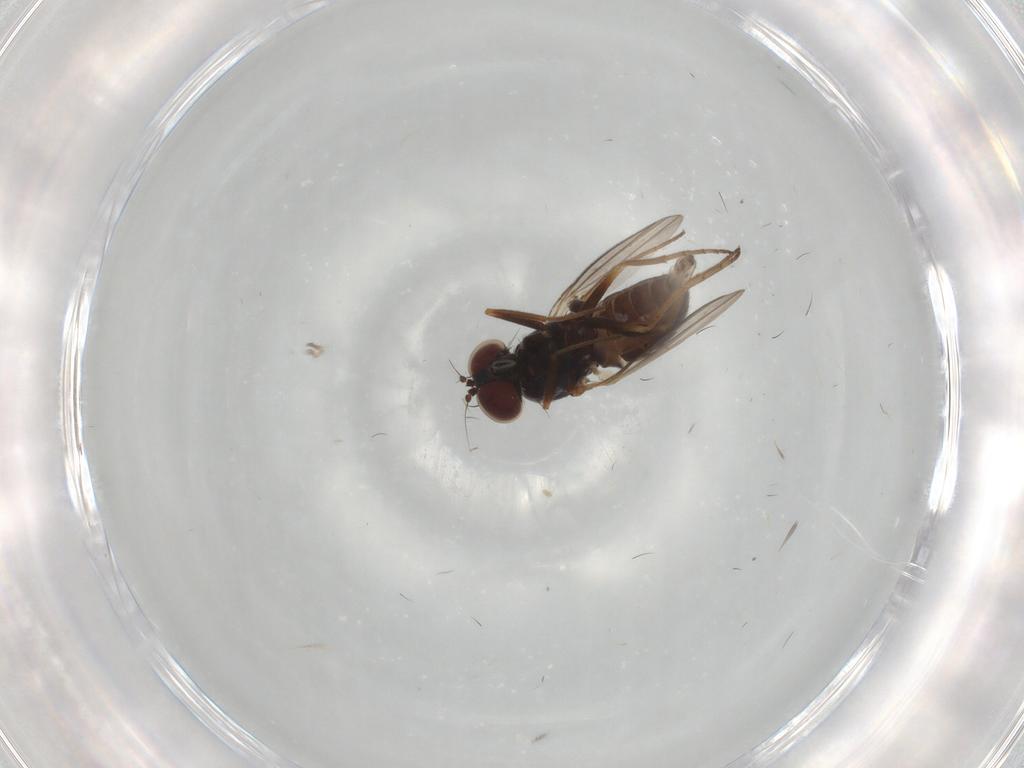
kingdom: Animalia
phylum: Arthropoda
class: Insecta
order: Diptera
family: Dolichopodidae
